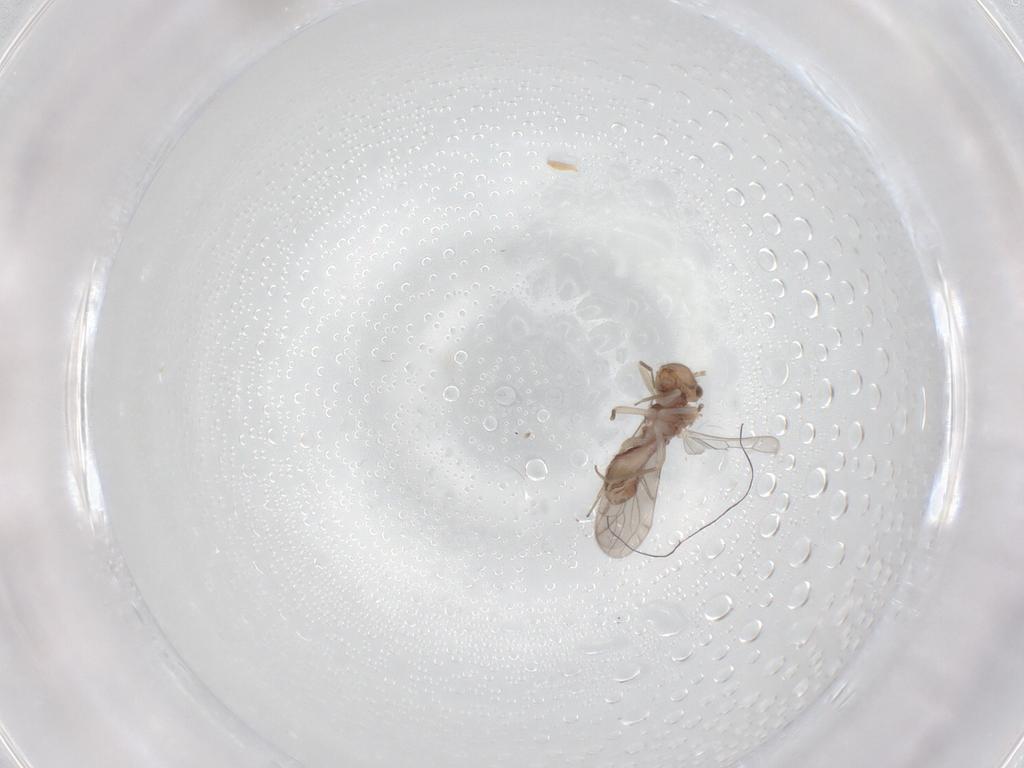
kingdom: Animalia
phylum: Arthropoda
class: Insecta
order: Psocodea
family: Ectopsocidae
